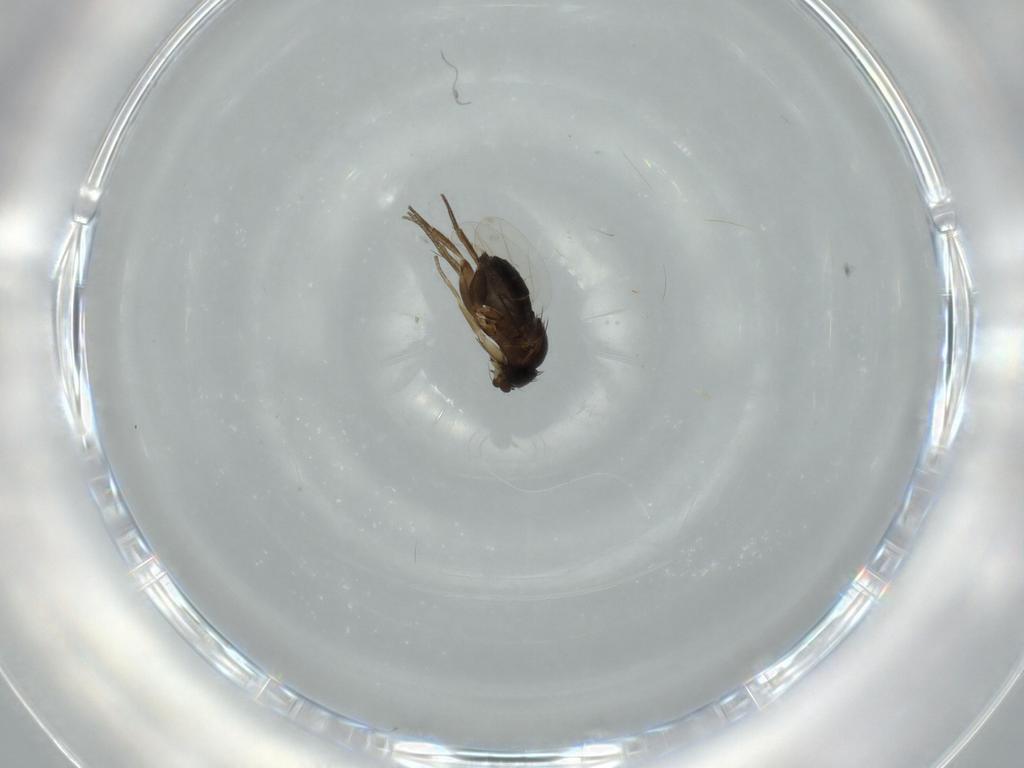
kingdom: Animalia
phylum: Arthropoda
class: Insecta
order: Diptera
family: Phoridae
